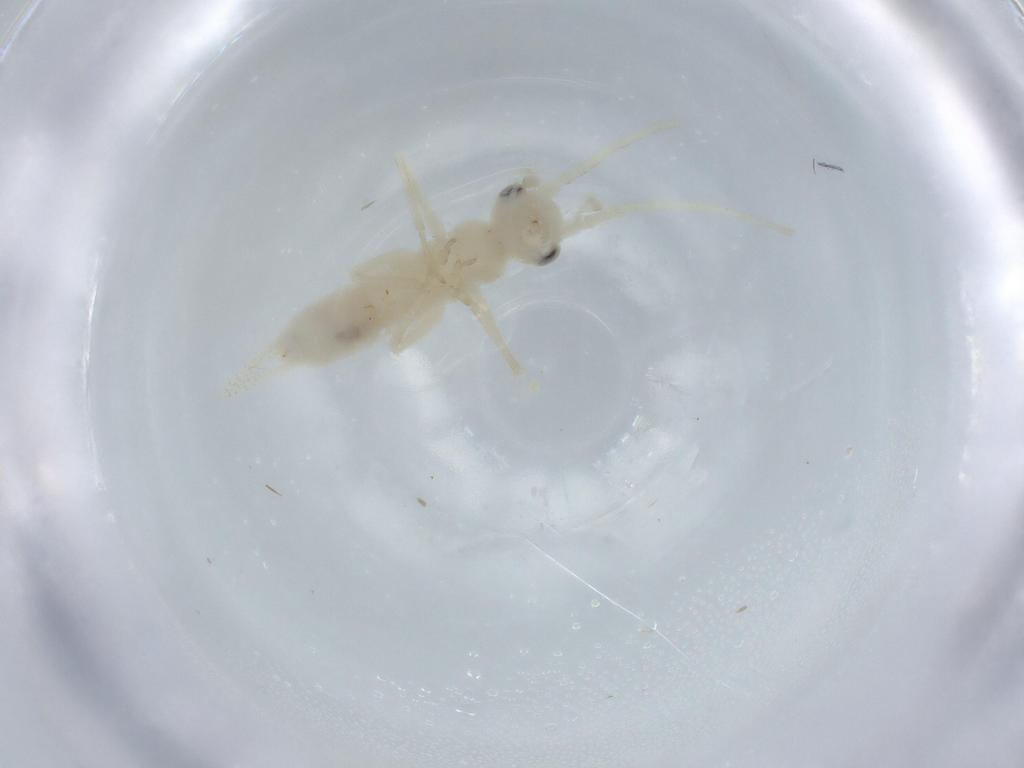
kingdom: Animalia
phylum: Arthropoda
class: Insecta
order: Orthoptera
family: Trigonidiidae
